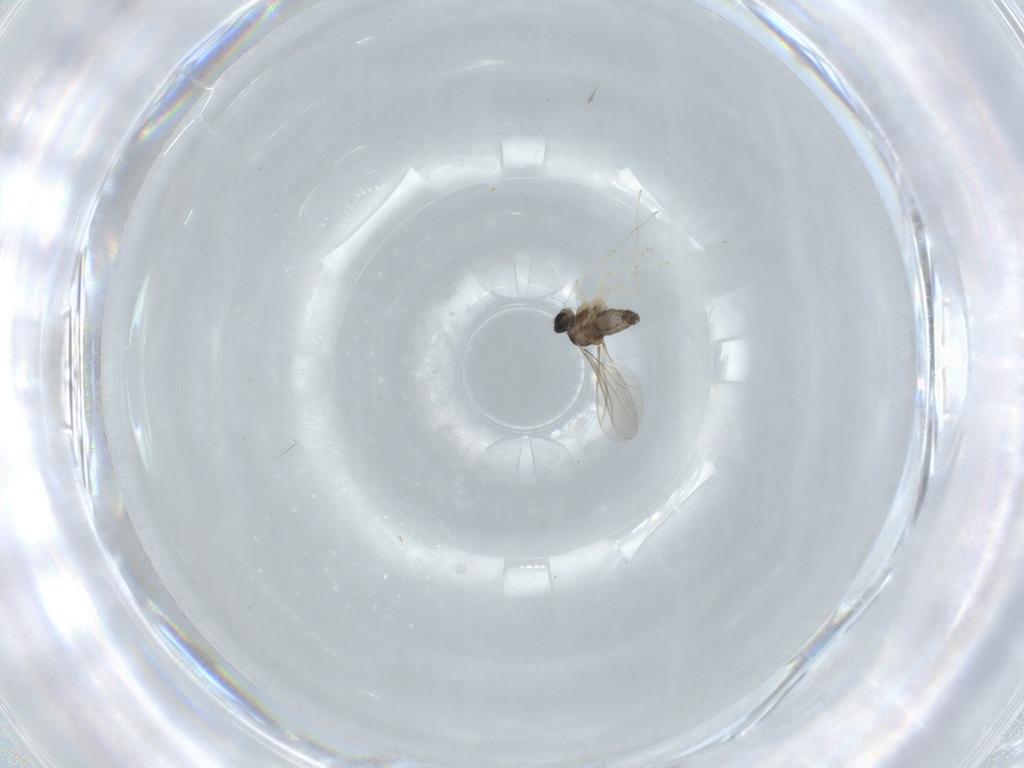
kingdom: Animalia
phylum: Arthropoda
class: Insecta
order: Diptera
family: Cecidomyiidae
